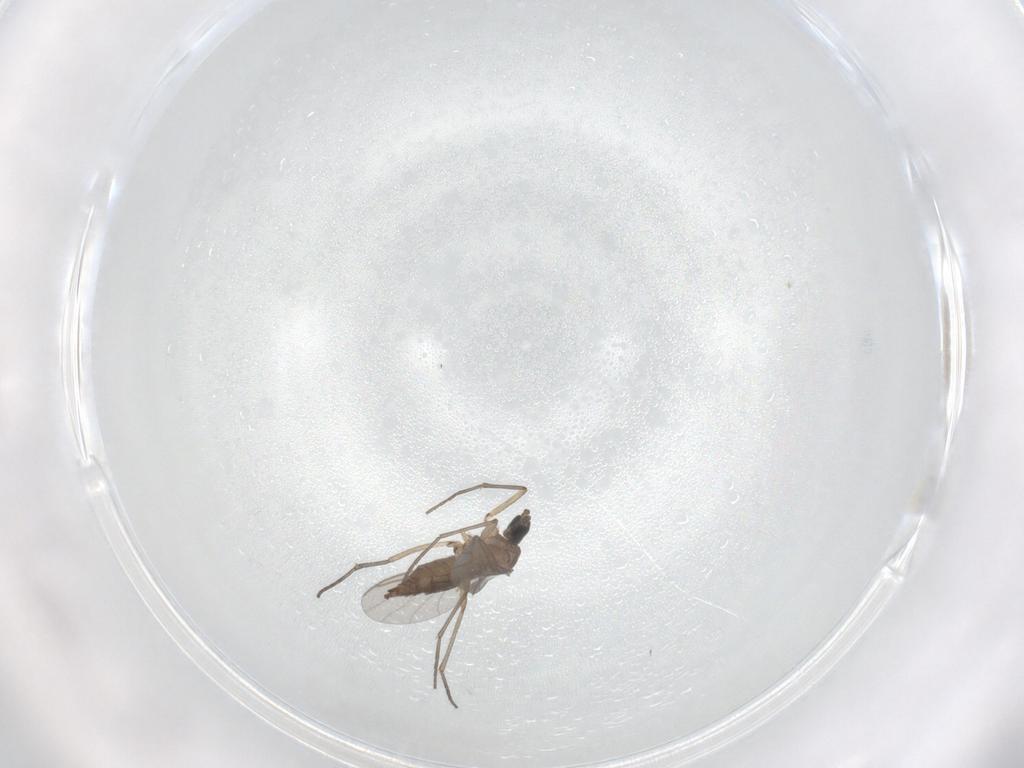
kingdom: Animalia
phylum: Arthropoda
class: Insecta
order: Diptera
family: Sciaridae
